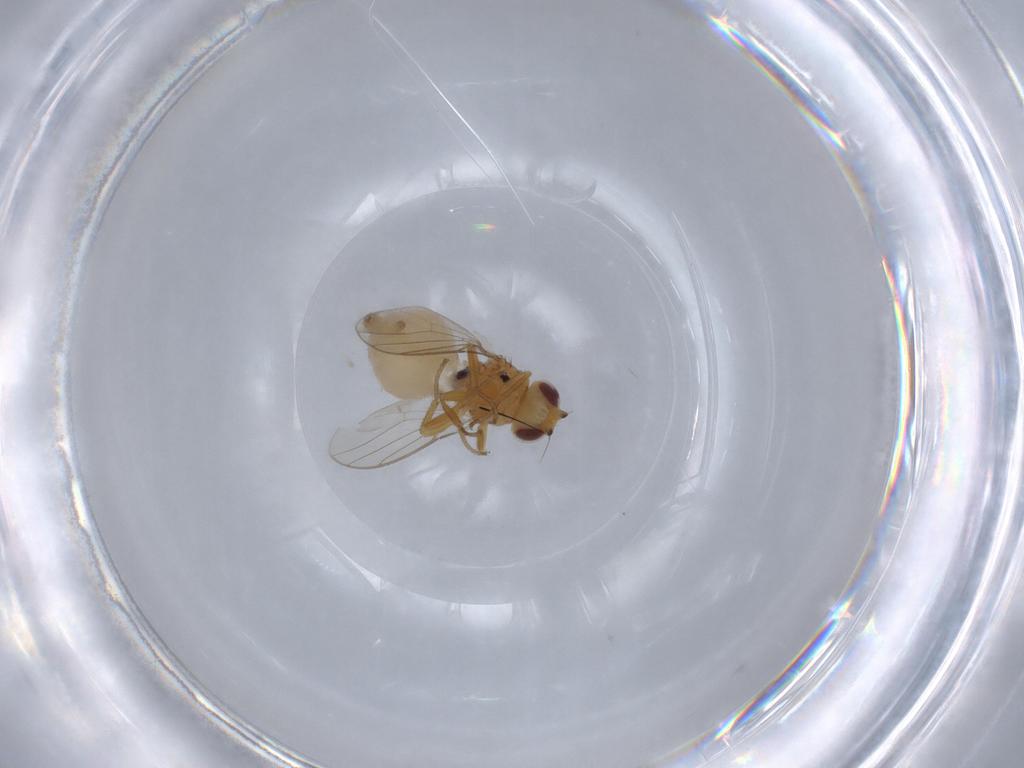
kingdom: Animalia
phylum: Arthropoda
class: Insecta
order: Diptera
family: Chloropidae
